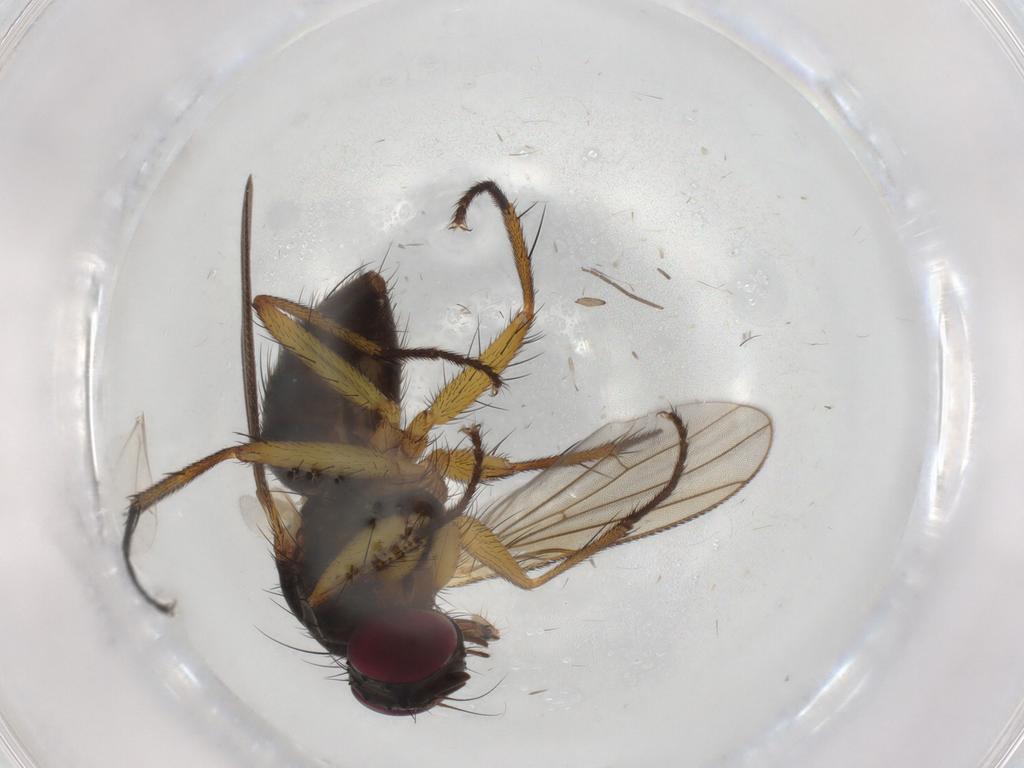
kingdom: Animalia
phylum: Arthropoda
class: Insecta
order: Diptera
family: Muscidae
